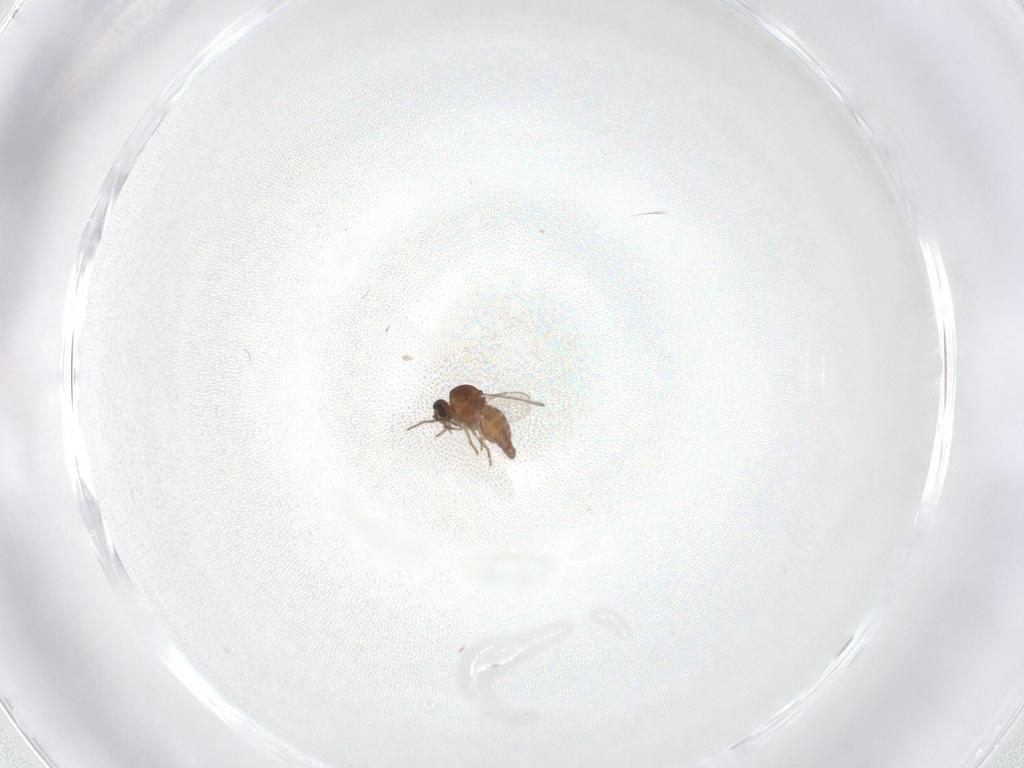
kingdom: Animalia
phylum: Arthropoda
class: Insecta
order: Diptera
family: Ceratopogonidae
